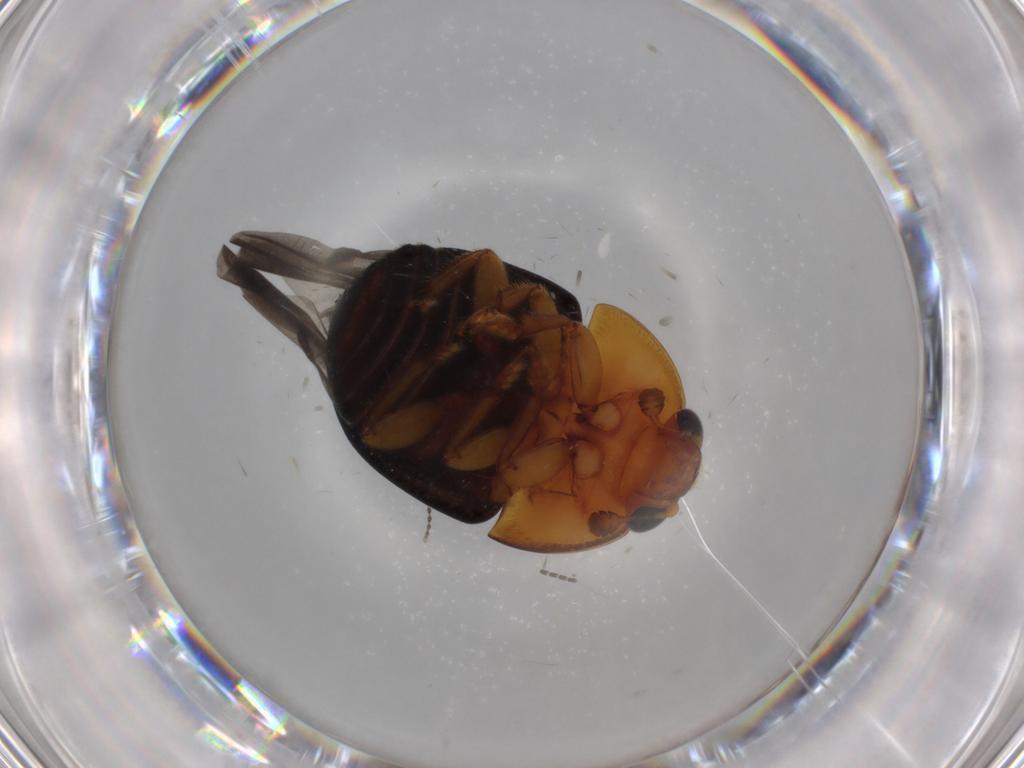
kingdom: Animalia
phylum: Arthropoda
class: Insecta
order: Coleoptera
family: Nitidulidae
